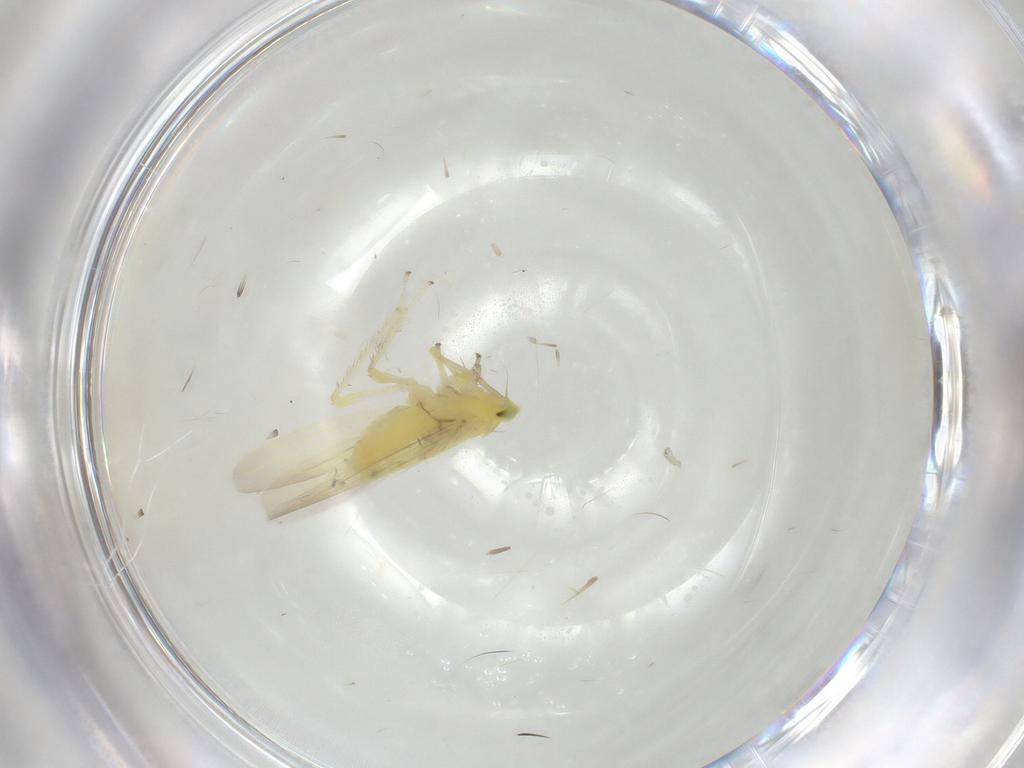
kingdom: Animalia
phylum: Arthropoda
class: Insecta
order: Hemiptera
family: Cicadellidae
